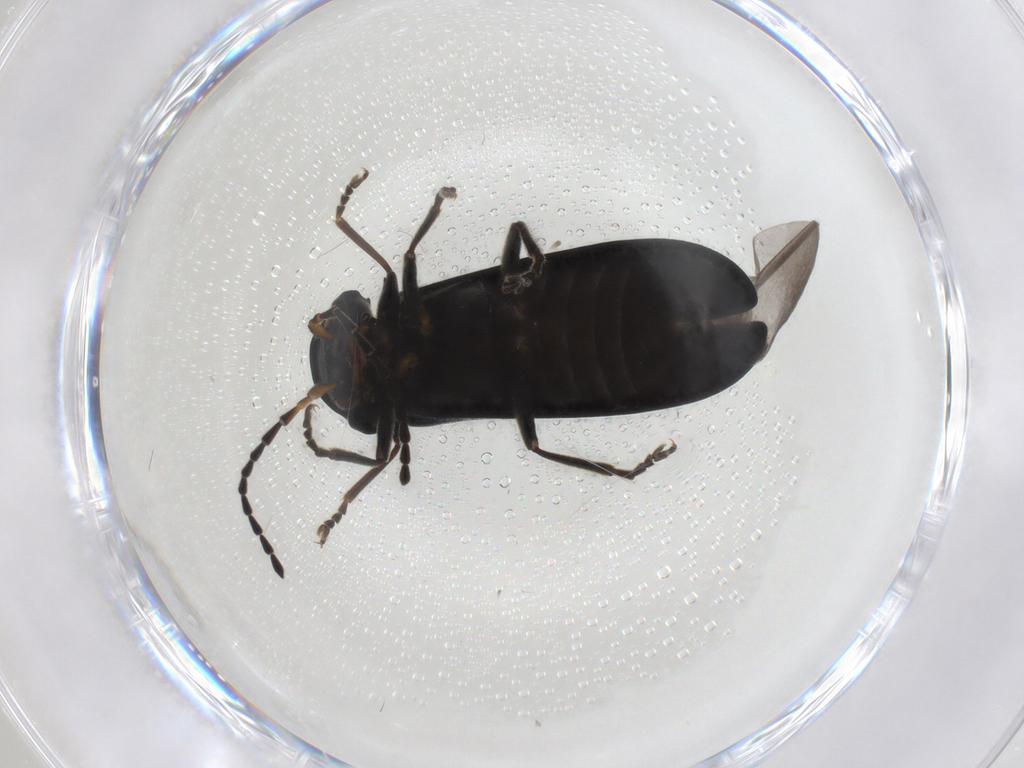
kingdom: Animalia
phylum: Arthropoda
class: Insecta
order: Coleoptera
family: Cantharidae
